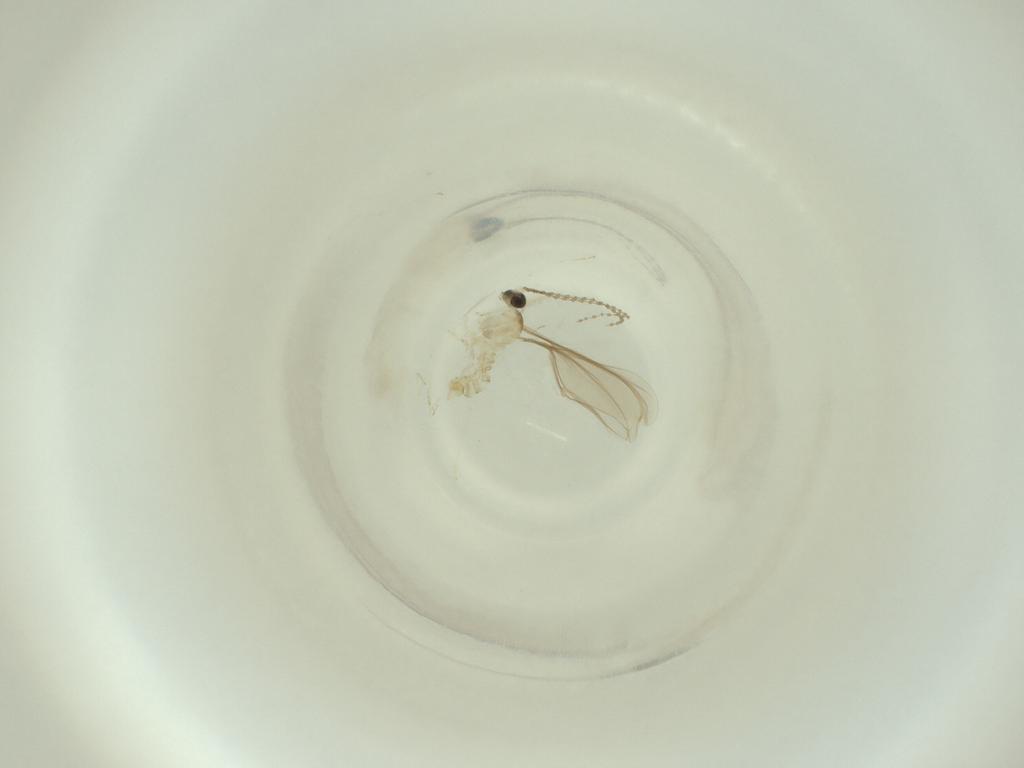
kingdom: Animalia
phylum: Arthropoda
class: Insecta
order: Diptera
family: Cecidomyiidae
